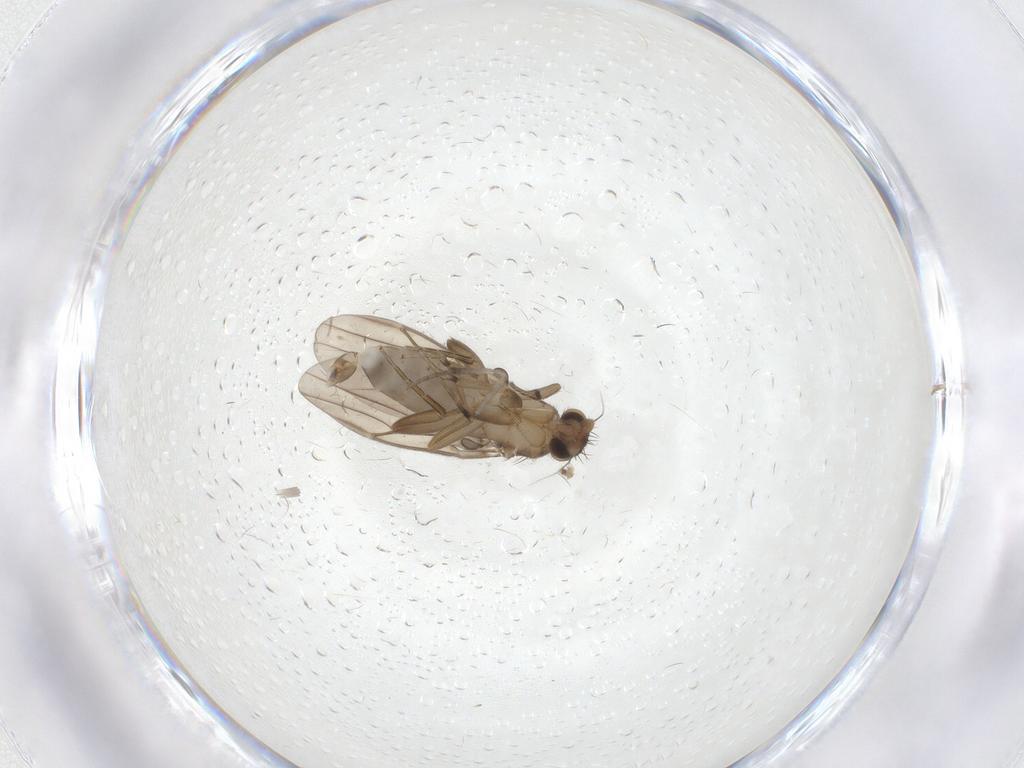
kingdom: Animalia
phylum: Arthropoda
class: Insecta
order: Diptera
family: Psychodidae
